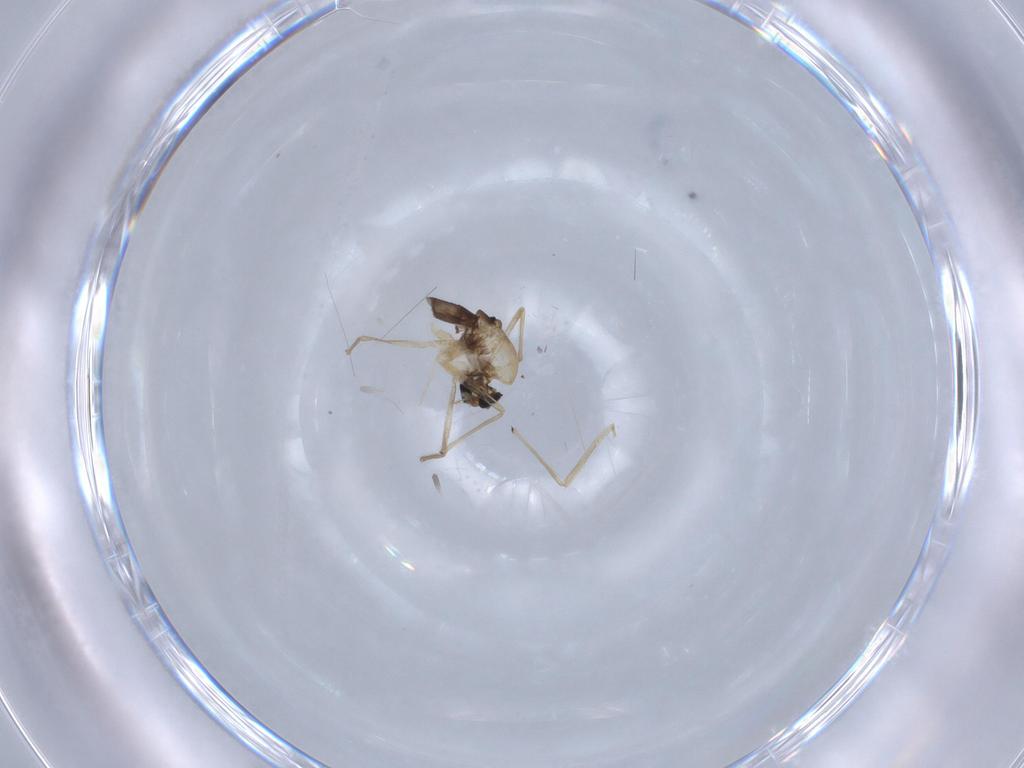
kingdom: Animalia
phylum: Arthropoda
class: Insecta
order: Diptera
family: Chironomidae
